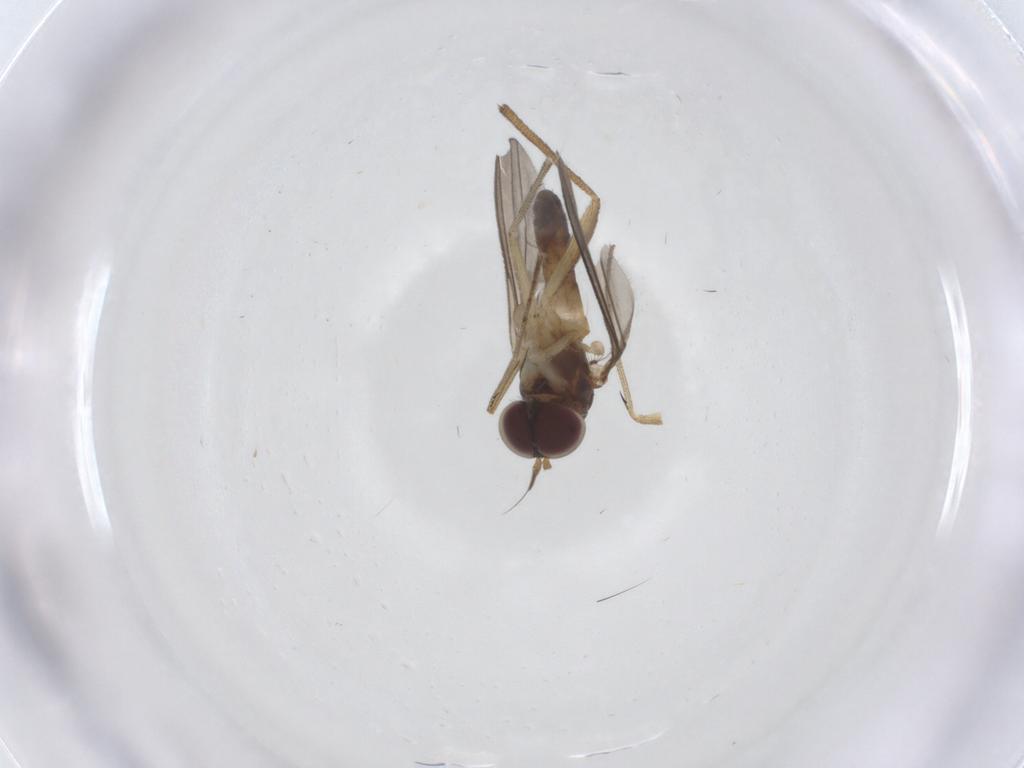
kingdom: Animalia
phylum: Arthropoda
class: Insecta
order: Diptera
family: Dolichopodidae
